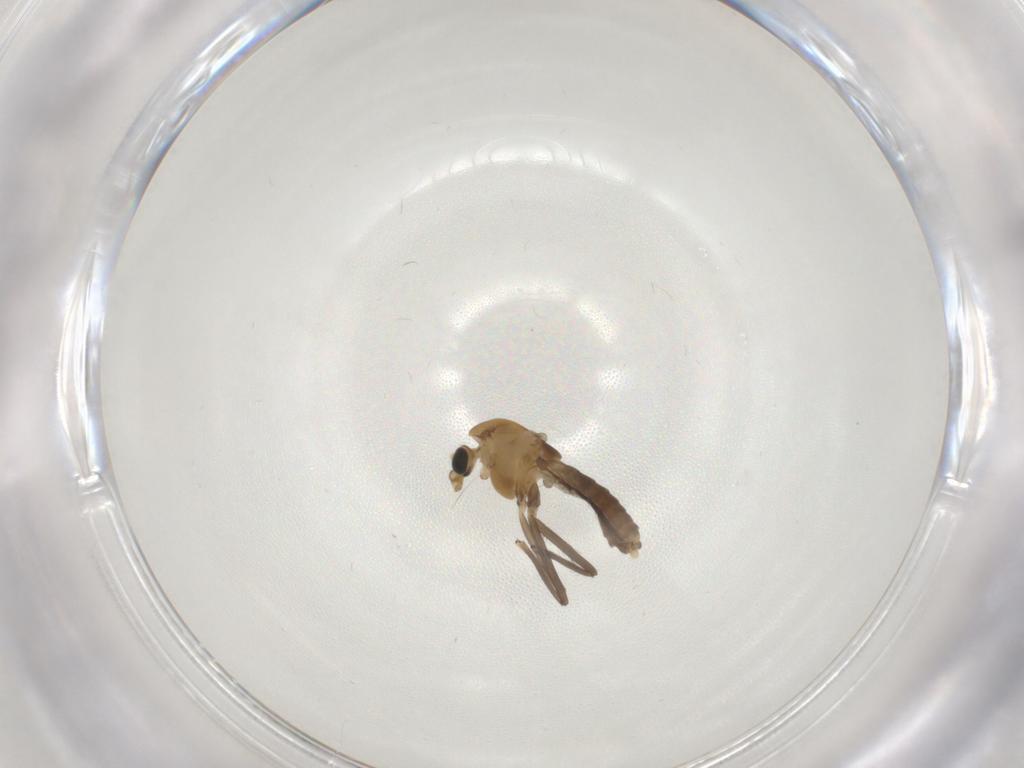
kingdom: Animalia
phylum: Arthropoda
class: Insecta
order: Diptera
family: Chironomidae
